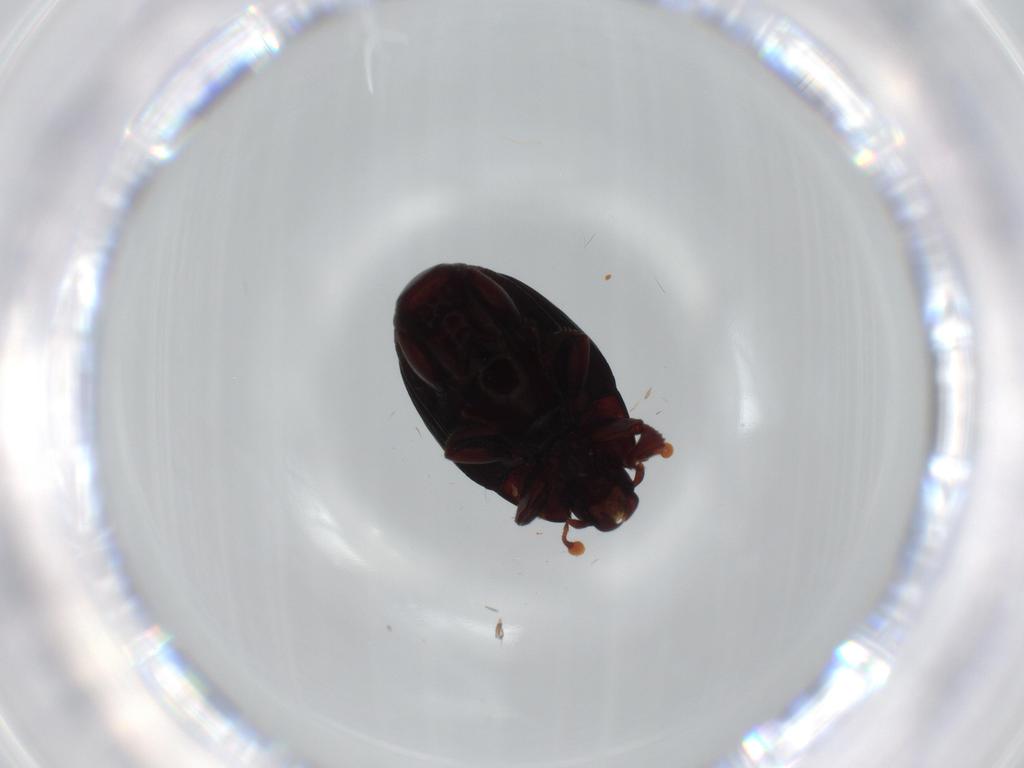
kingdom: Animalia
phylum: Arthropoda
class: Insecta
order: Coleoptera
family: Histeridae
